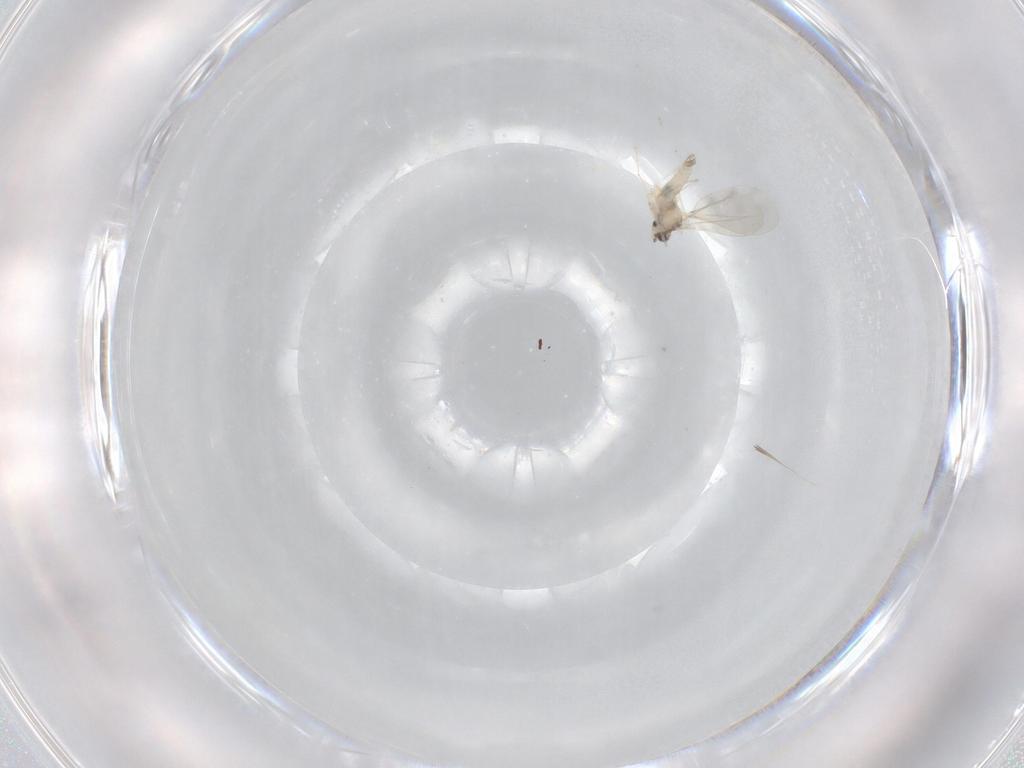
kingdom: Animalia
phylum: Arthropoda
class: Insecta
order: Diptera
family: Cecidomyiidae
